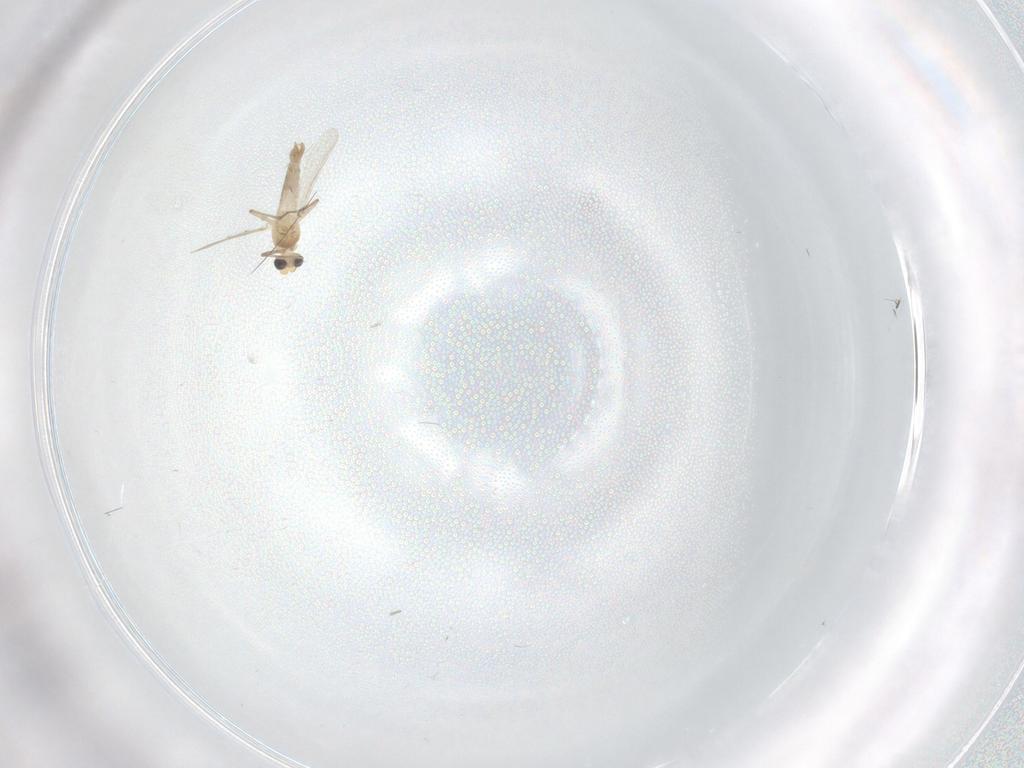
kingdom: Animalia
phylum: Arthropoda
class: Insecta
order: Diptera
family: Chironomidae
